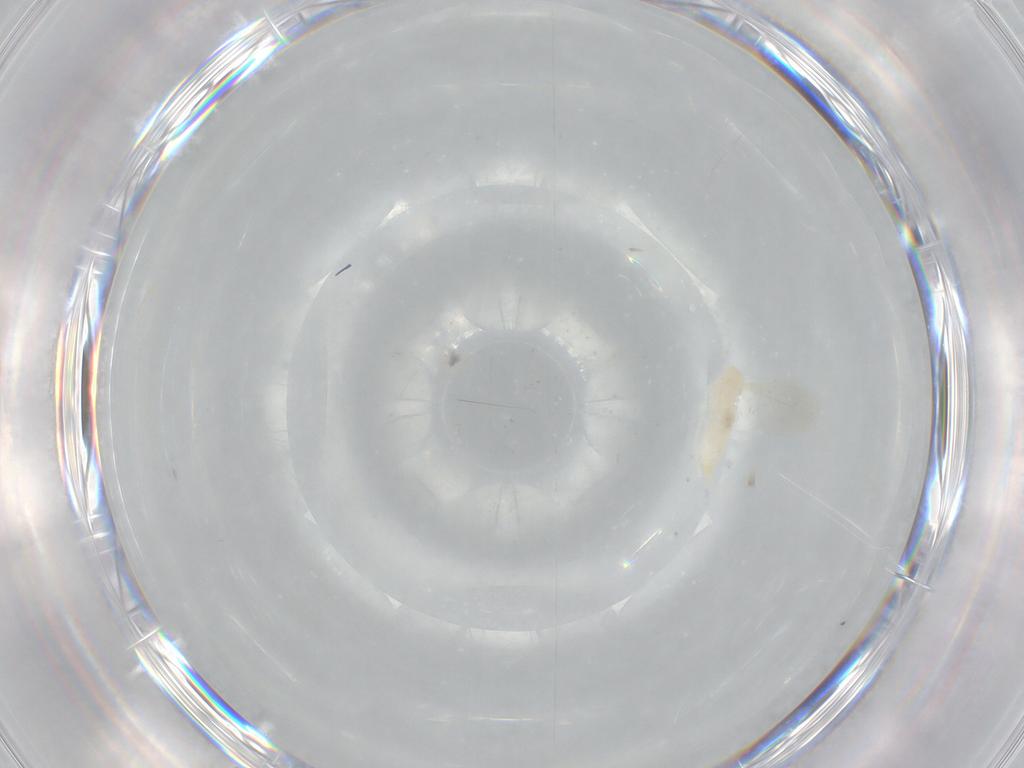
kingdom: Animalia
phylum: Arthropoda
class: Insecta
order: Diptera
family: Cecidomyiidae
